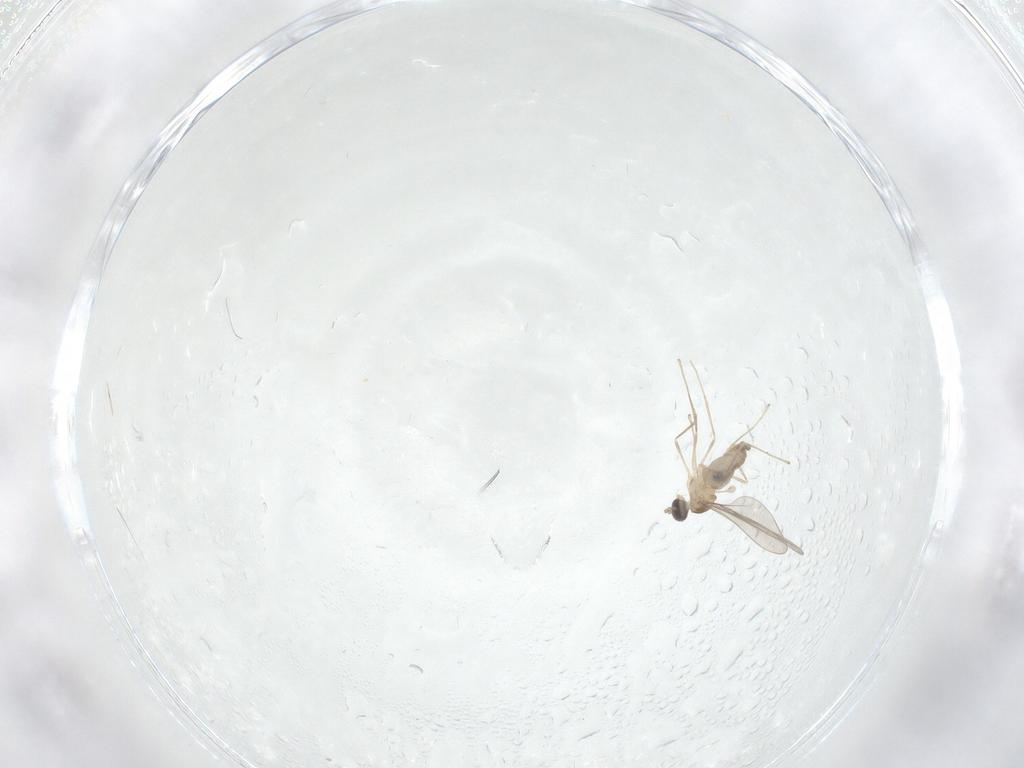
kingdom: Animalia
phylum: Arthropoda
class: Insecta
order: Diptera
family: Cecidomyiidae
